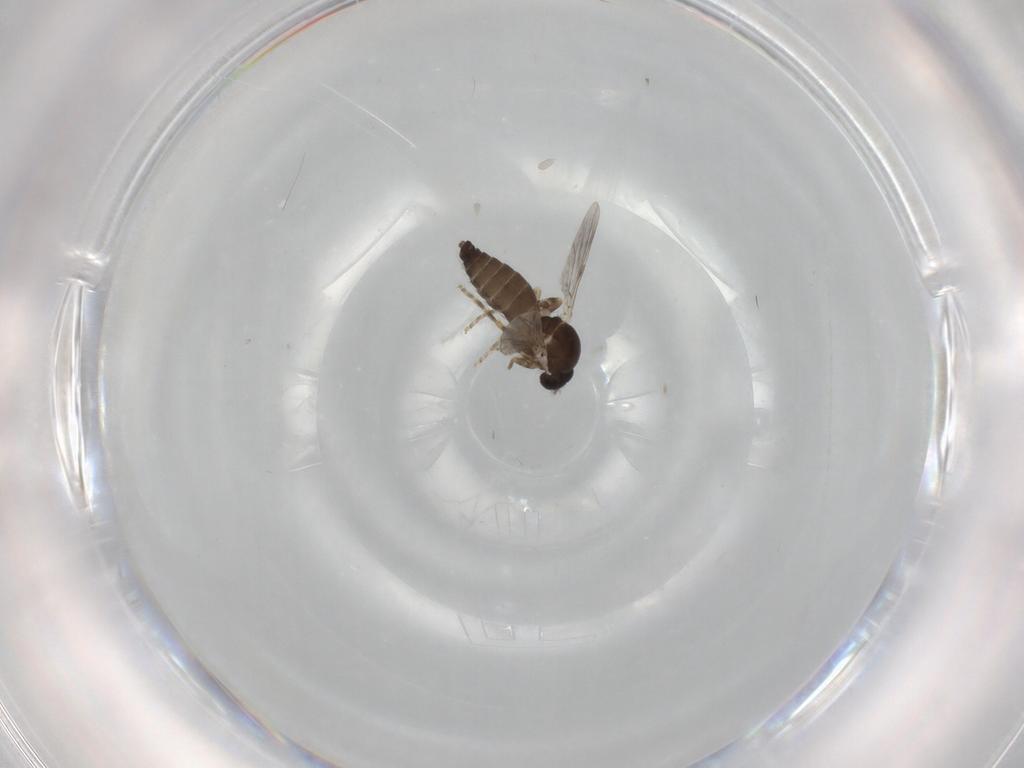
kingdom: Animalia
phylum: Arthropoda
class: Insecta
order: Diptera
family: Ceratopogonidae
